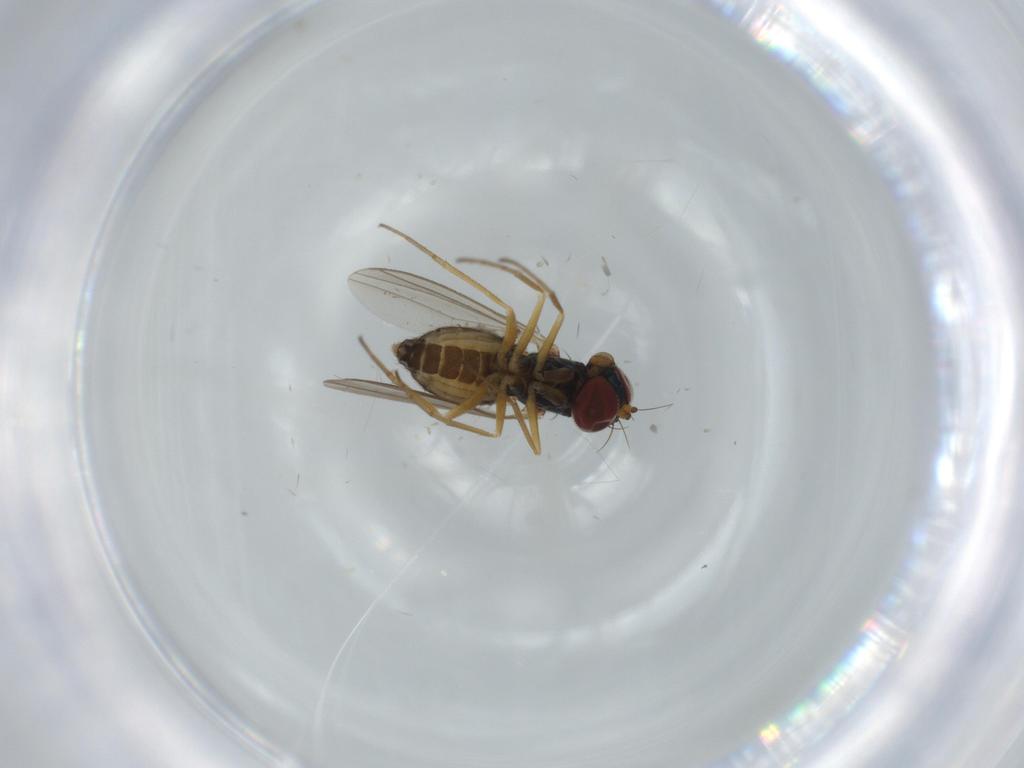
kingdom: Animalia
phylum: Arthropoda
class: Insecta
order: Diptera
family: Dolichopodidae
